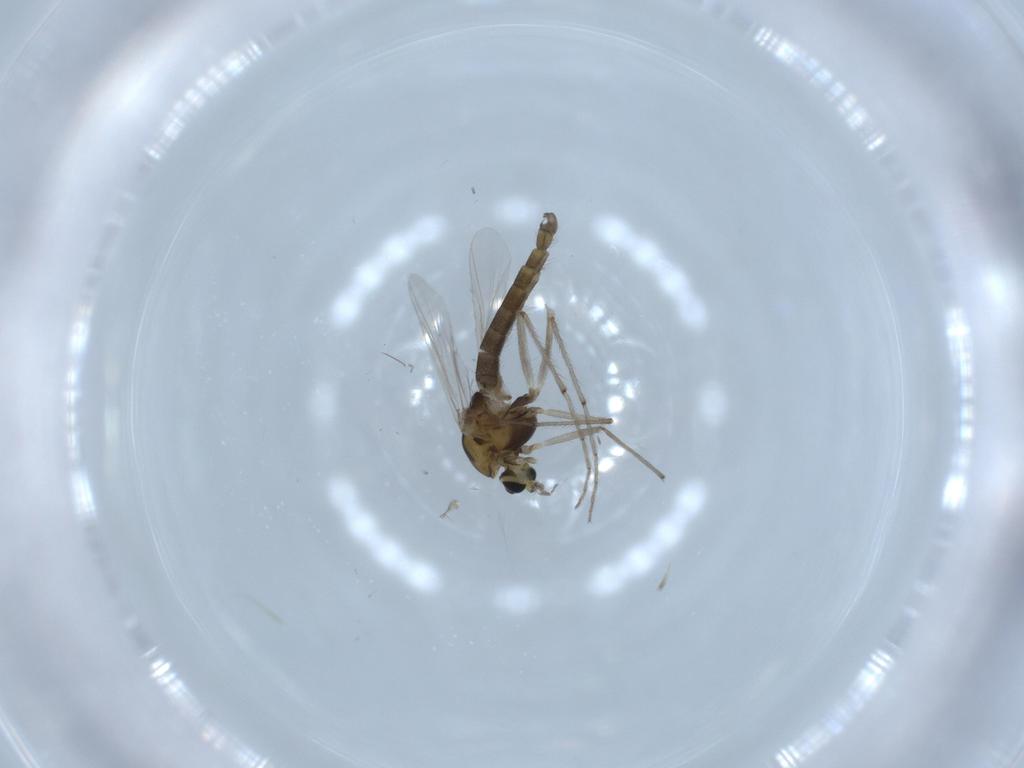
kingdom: Animalia
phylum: Arthropoda
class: Insecta
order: Diptera
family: Chironomidae
